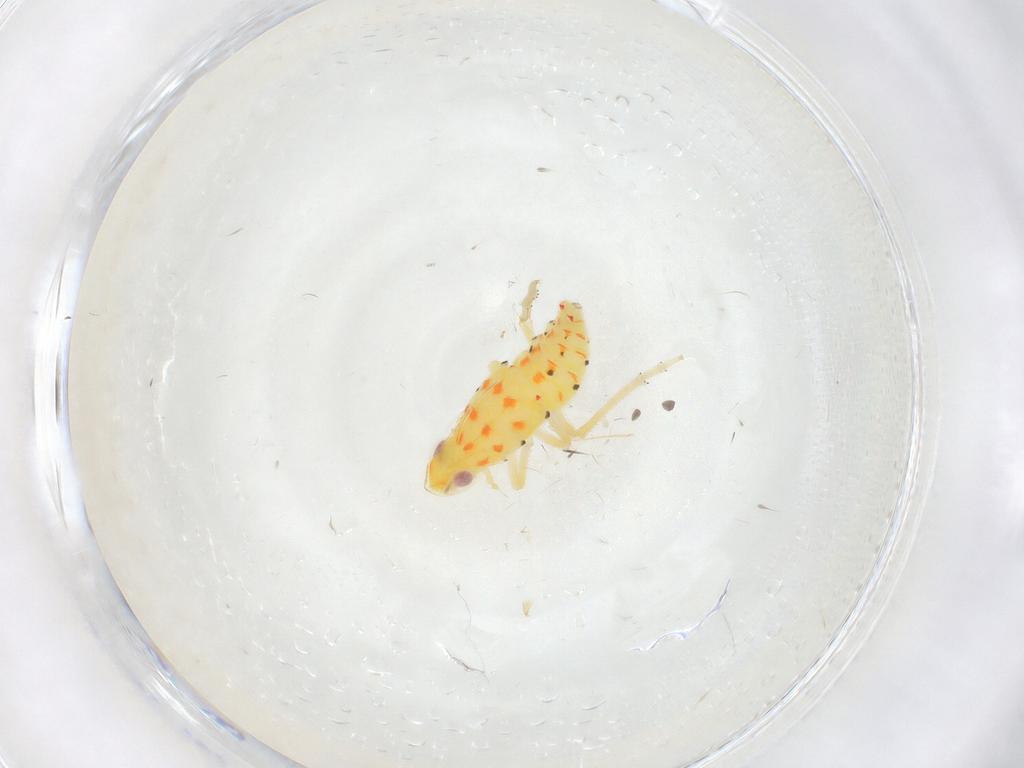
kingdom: Animalia
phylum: Arthropoda
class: Insecta
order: Hemiptera
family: Tropiduchidae
